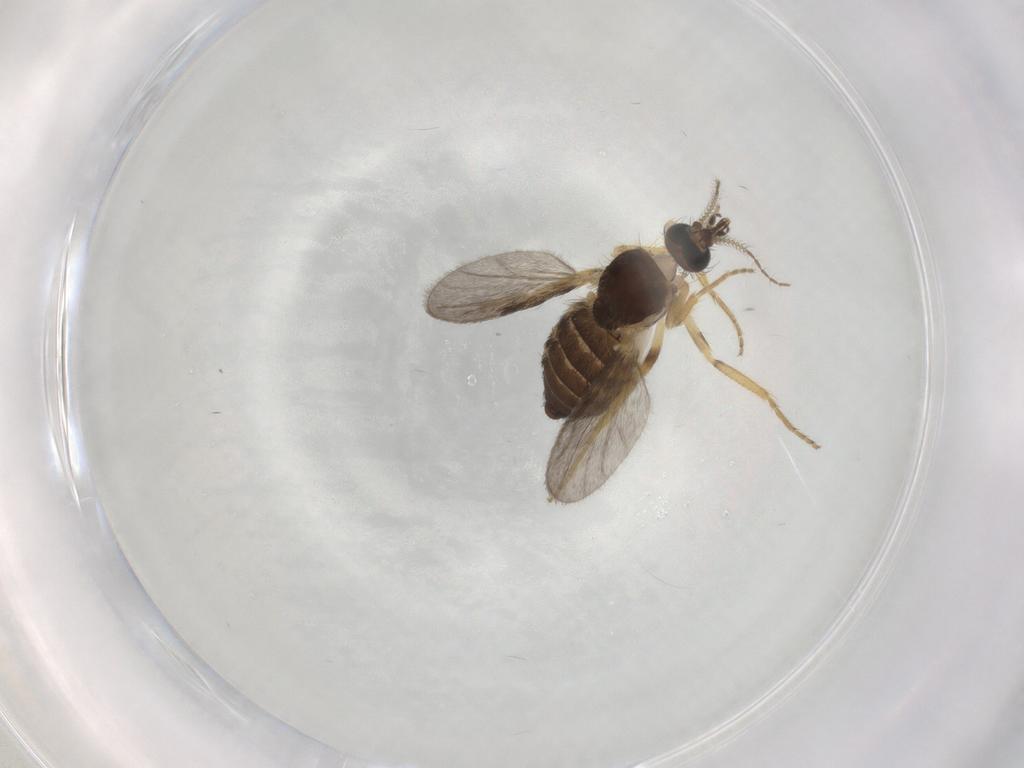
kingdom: Animalia
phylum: Arthropoda
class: Insecta
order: Diptera
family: Ceratopogonidae
